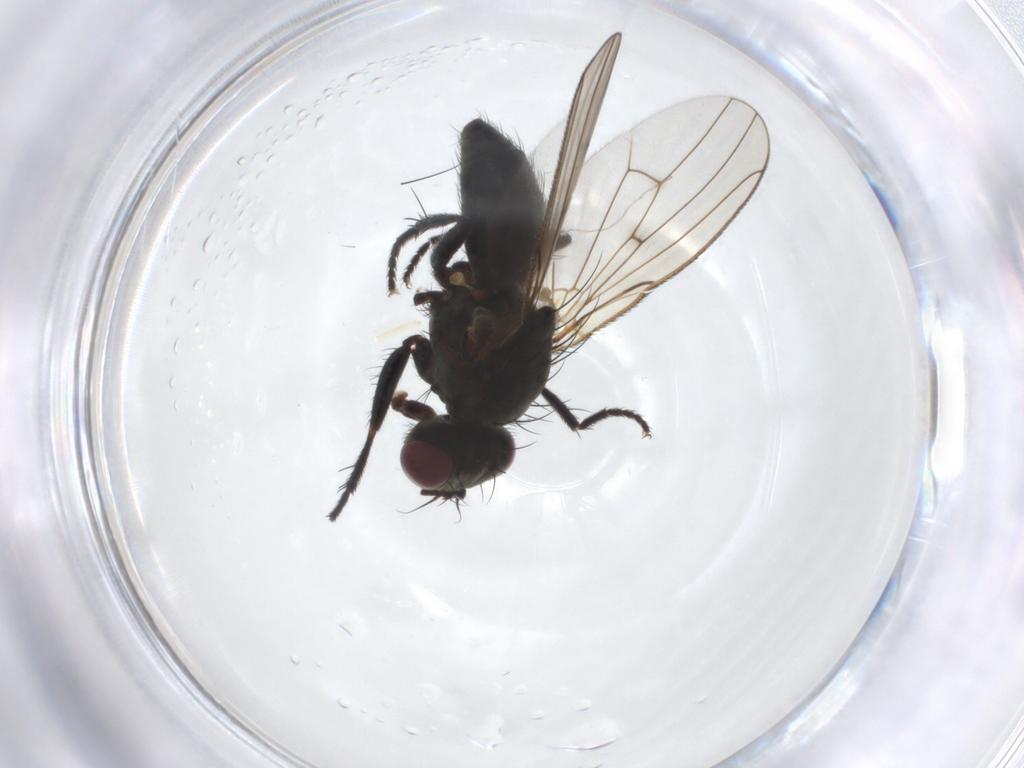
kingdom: Animalia
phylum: Arthropoda
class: Insecta
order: Diptera
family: Muscidae
